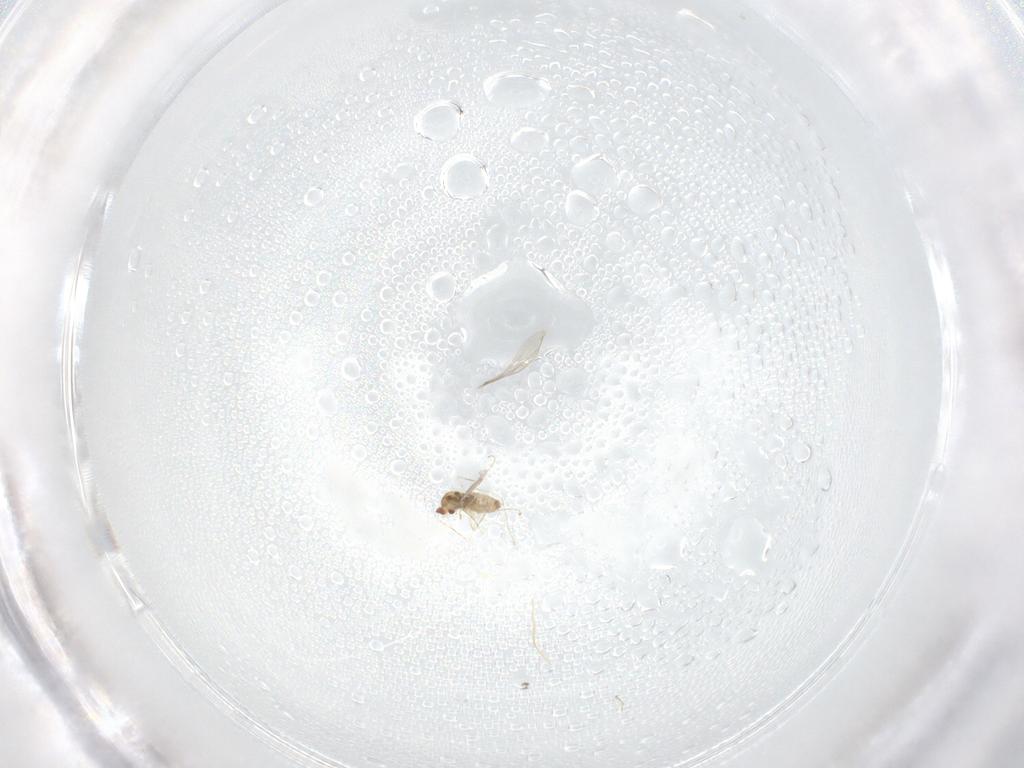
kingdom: Animalia
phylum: Arthropoda
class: Insecta
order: Diptera
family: Cecidomyiidae
